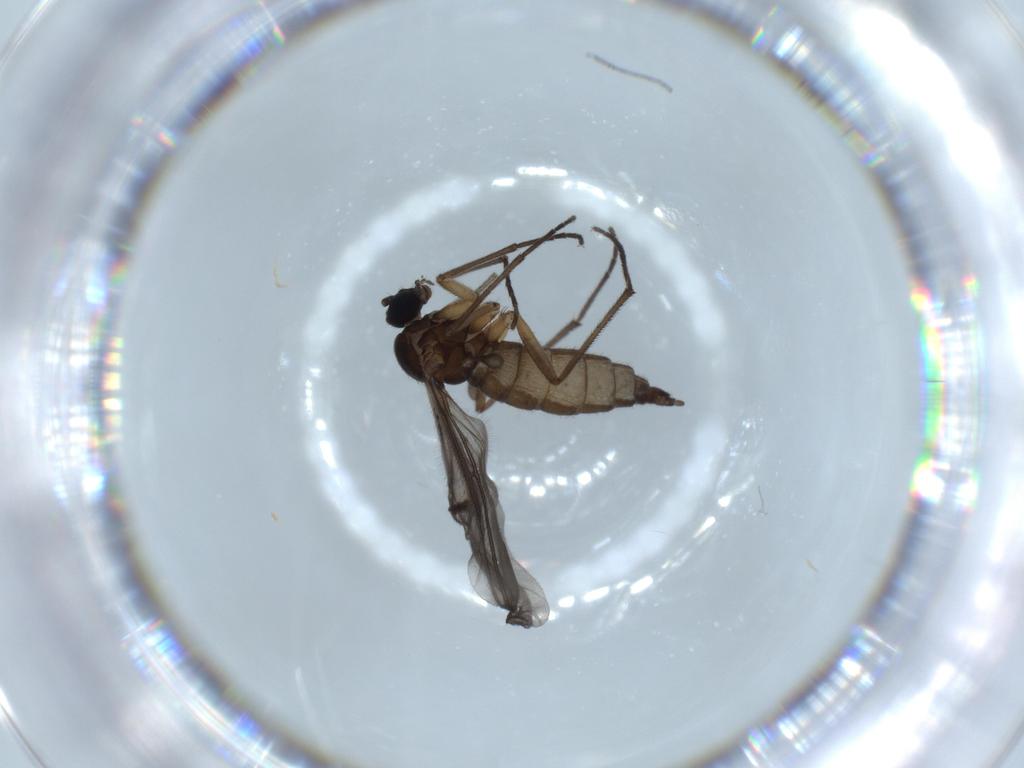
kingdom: Animalia
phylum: Arthropoda
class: Insecta
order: Diptera
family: Sciaridae
